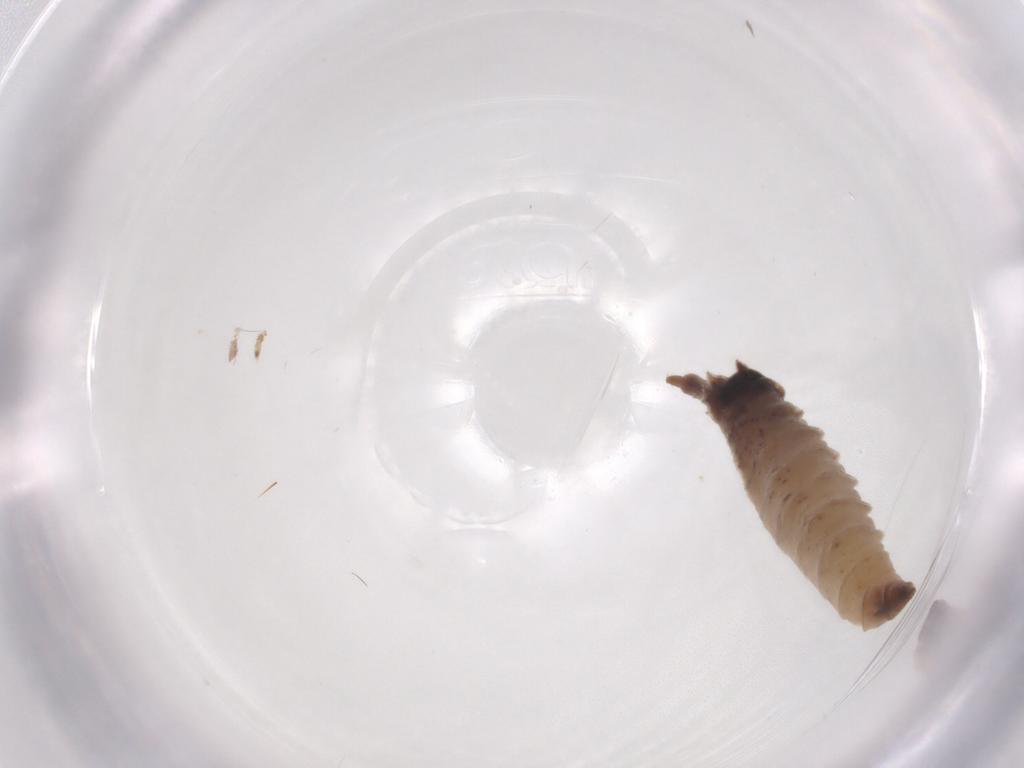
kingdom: Animalia
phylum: Arthropoda
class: Insecta
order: Diptera
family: Drosophilidae
